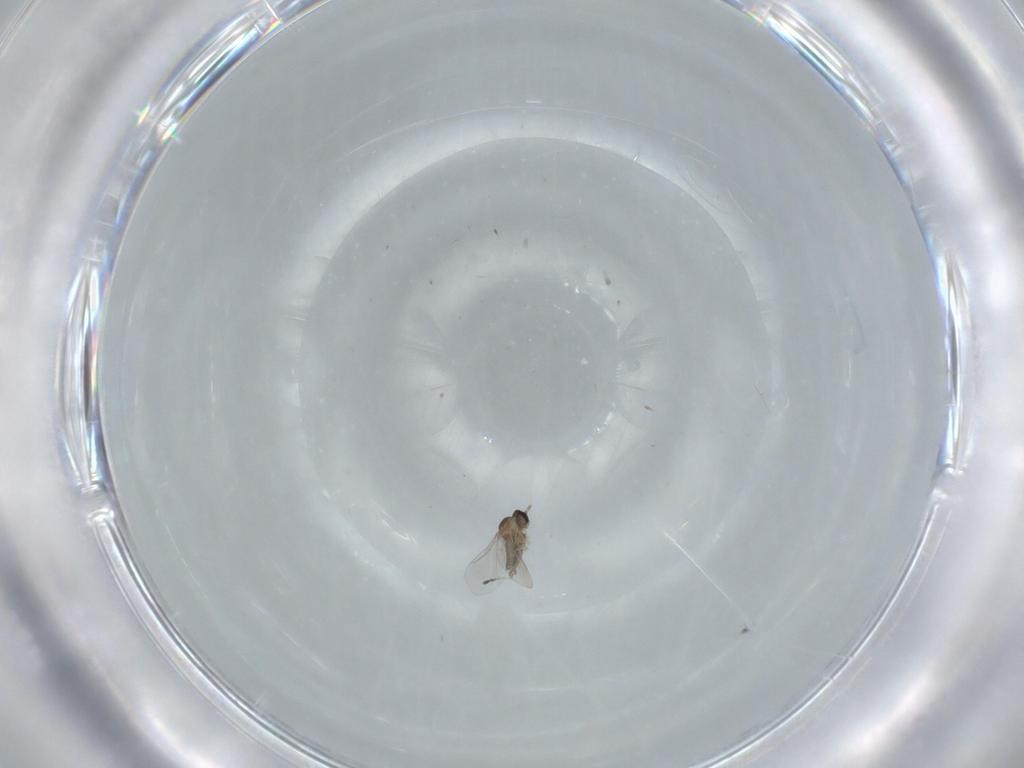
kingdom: Animalia
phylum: Arthropoda
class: Insecta
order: Diptera
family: Cecidomyiidae
